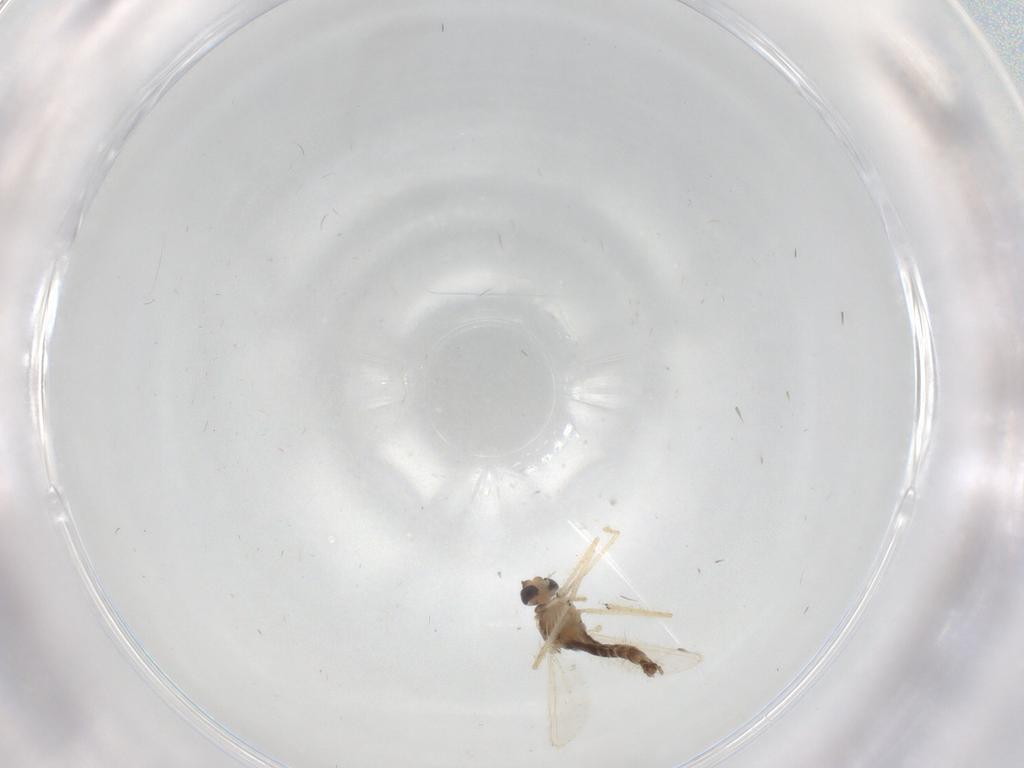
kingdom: Animalia
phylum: Arthropoda
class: Insecta
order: Diptera
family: Chironomidae
